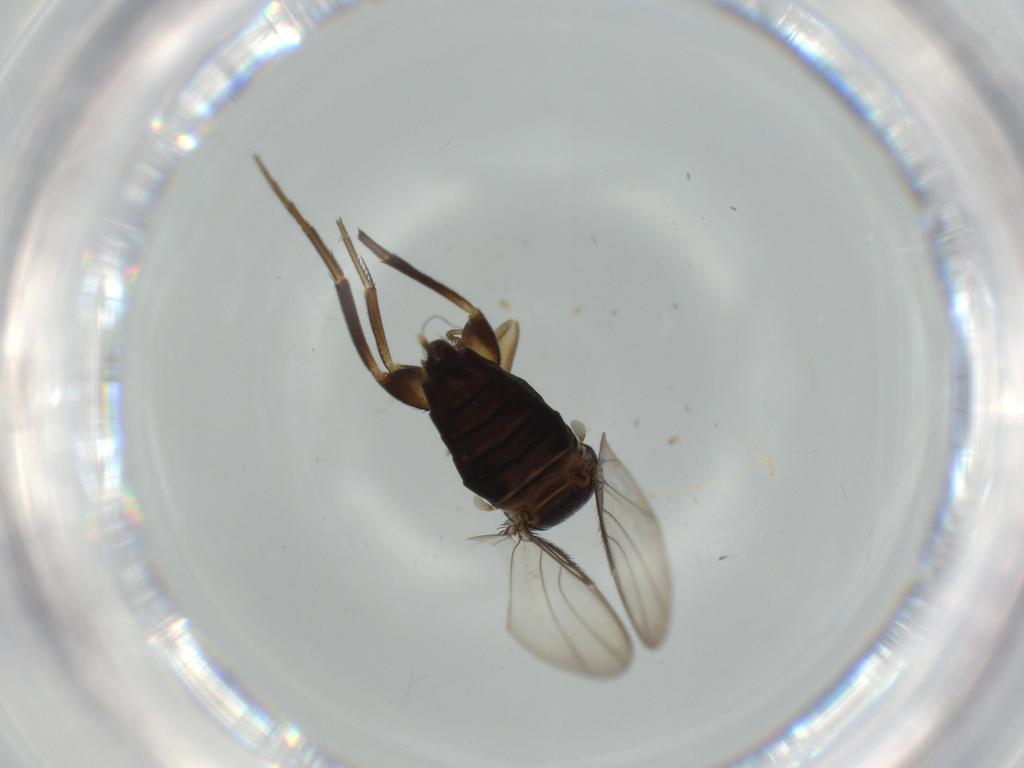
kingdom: Animalia
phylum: Arthropoda
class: Insecta
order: Diptera
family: Phoridae
